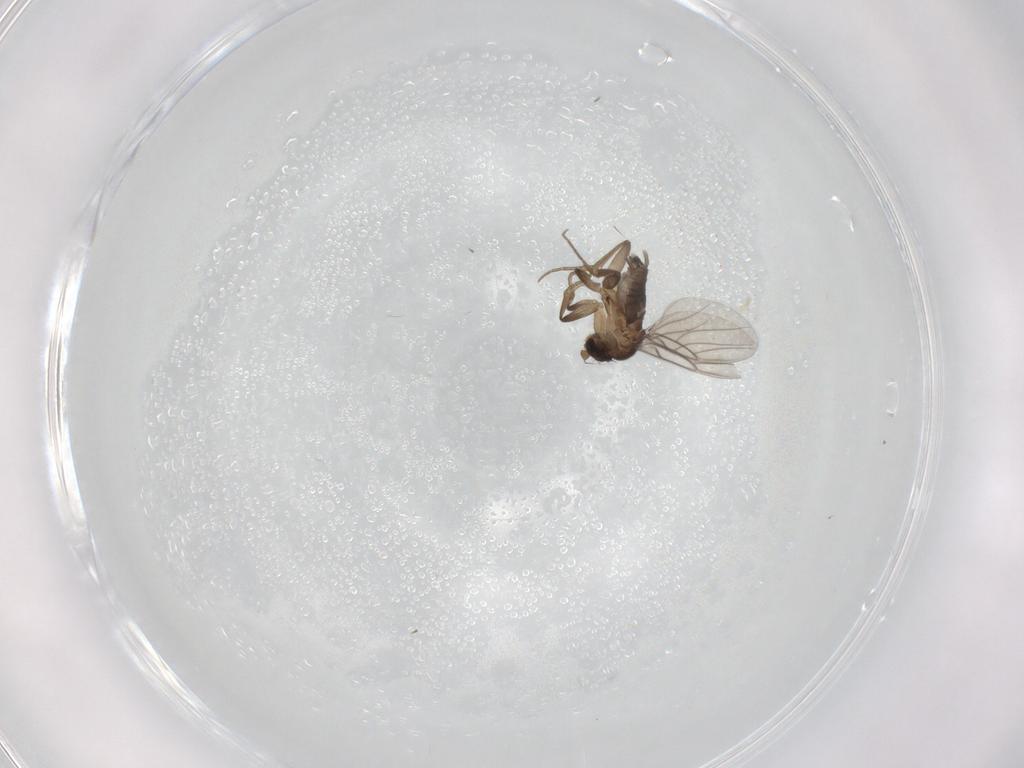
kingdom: Animalia
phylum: Arthropoda
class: Insecta
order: Diptera
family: Phoridae
